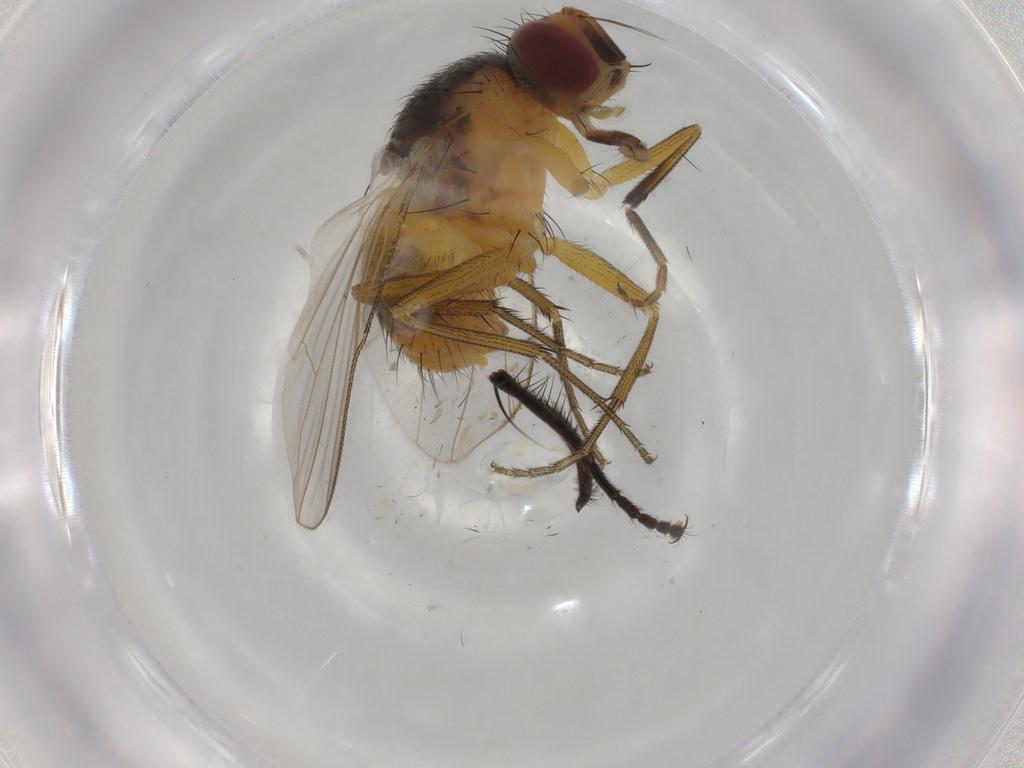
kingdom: Animalia
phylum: Arthropoda
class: Insecta
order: Diptera
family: Muscidae
